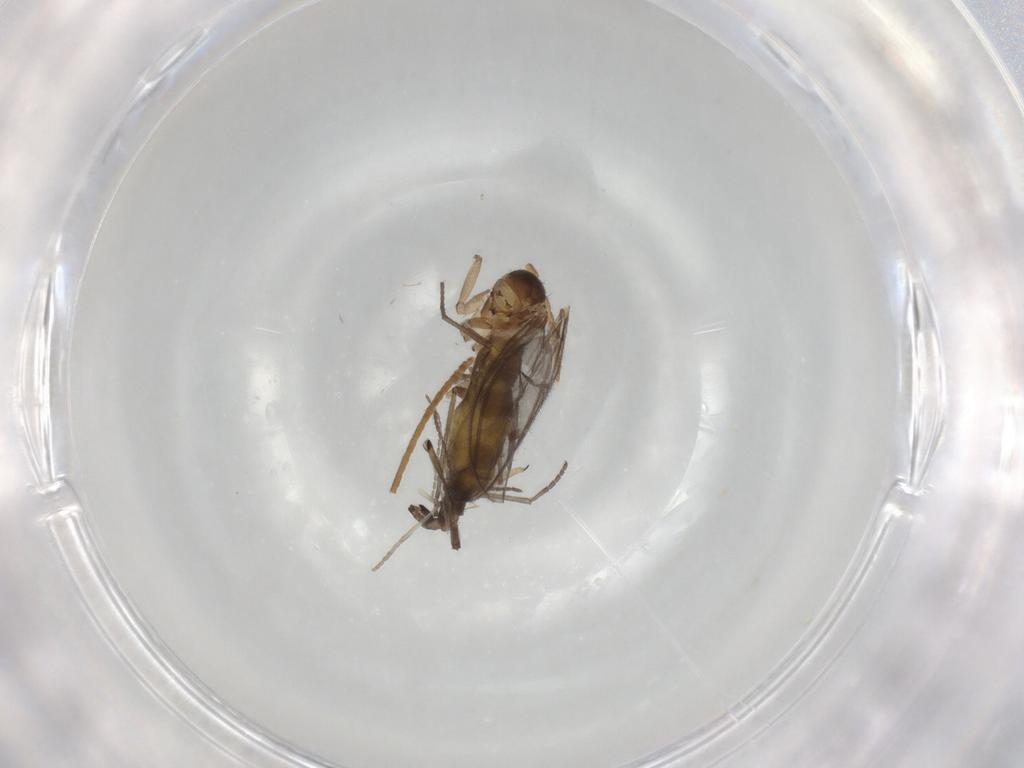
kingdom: Animalia
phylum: Arthropoda
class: Insecta
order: Diptera
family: Sciaridae
